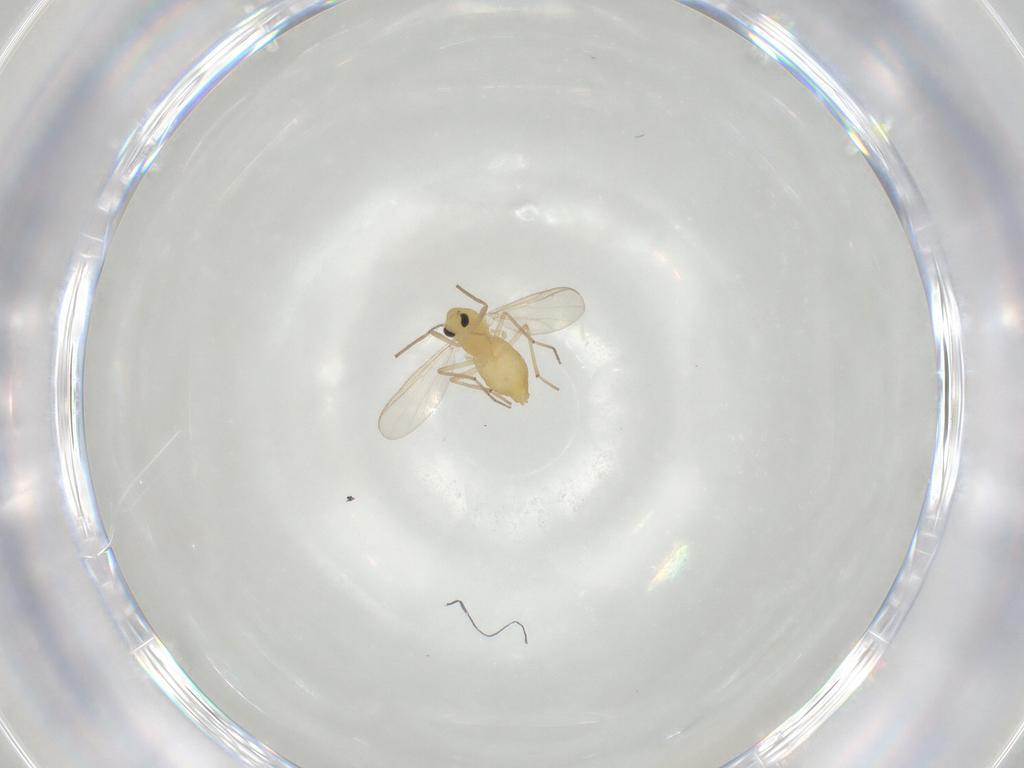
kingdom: Animalia
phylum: Arthropoda
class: Insecta
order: Diptera
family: Chironomidae
